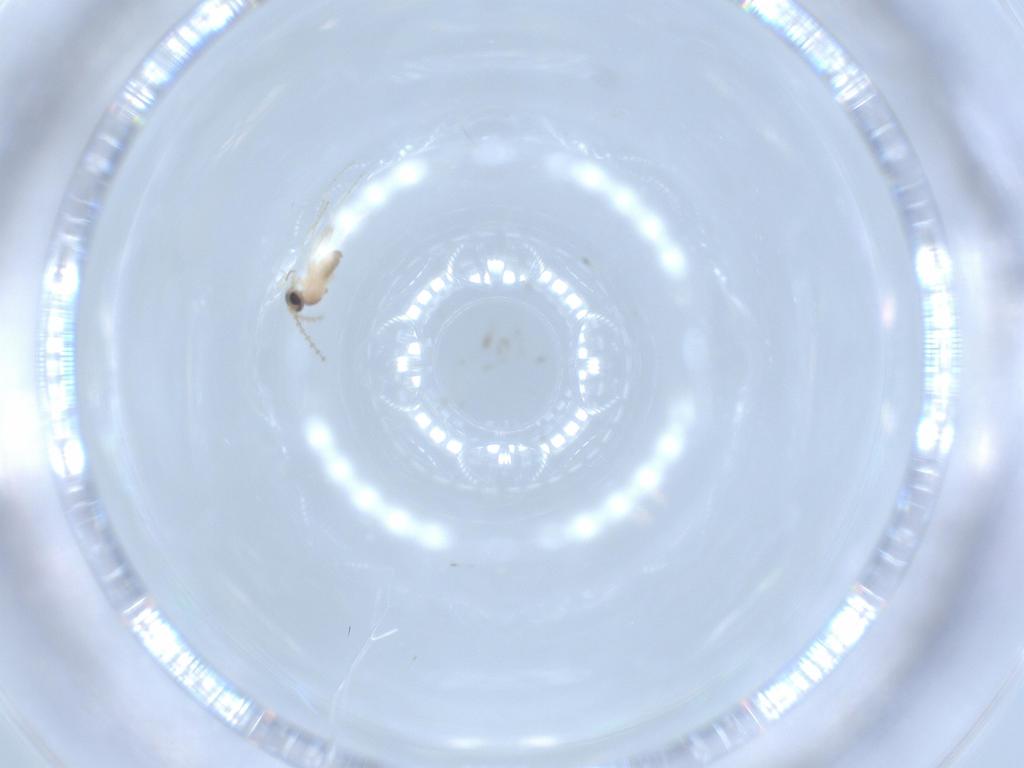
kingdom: Animalia
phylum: Arthropoda
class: Insecta
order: Diptera
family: Cecidomyiidae
